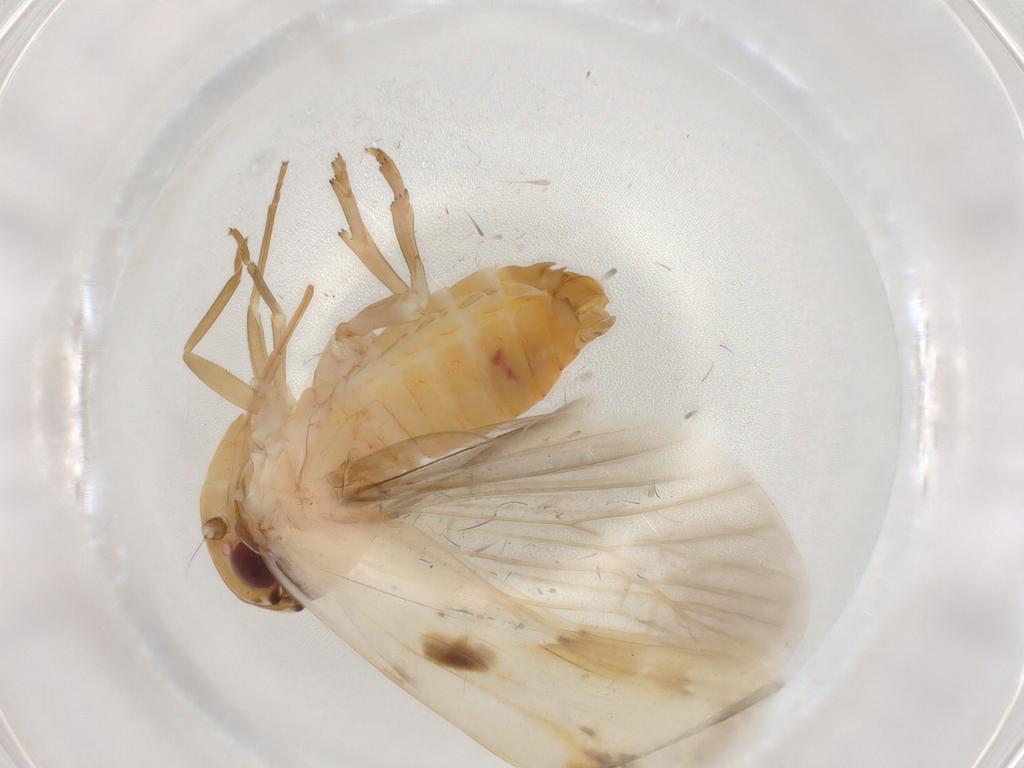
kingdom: Animalia
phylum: Arthropoda
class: Insecta
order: Hemiptera
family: Achilidae
